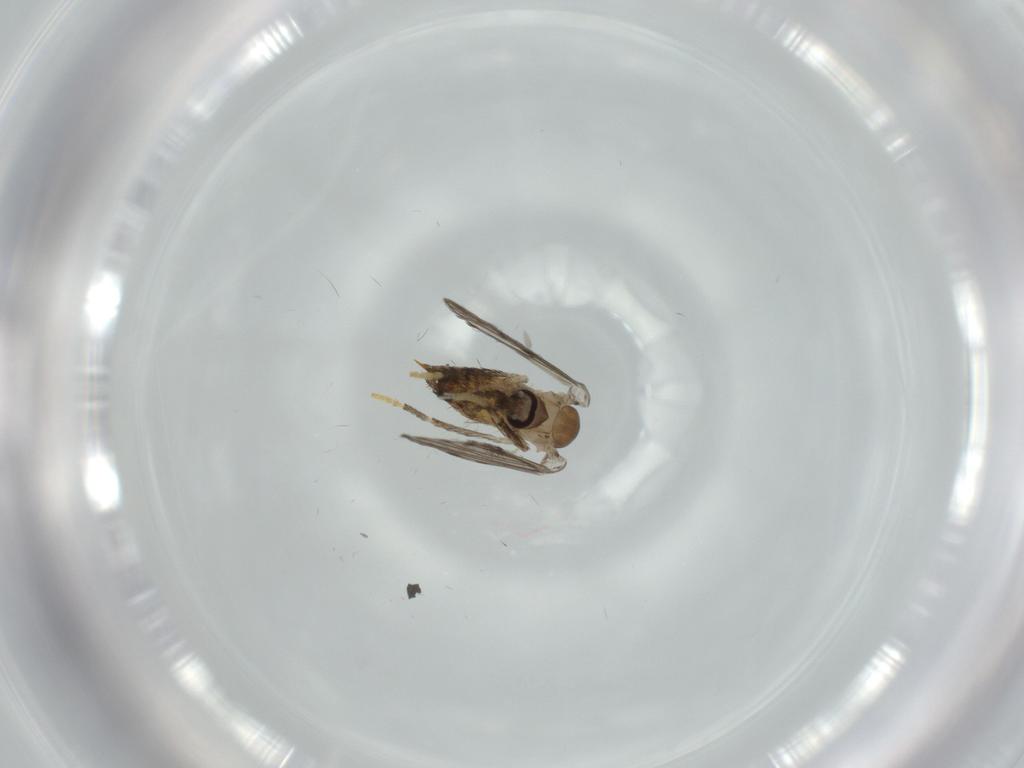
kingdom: Animalia
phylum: Arthropoda
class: Insecta
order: Diptera
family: Psychodidae
